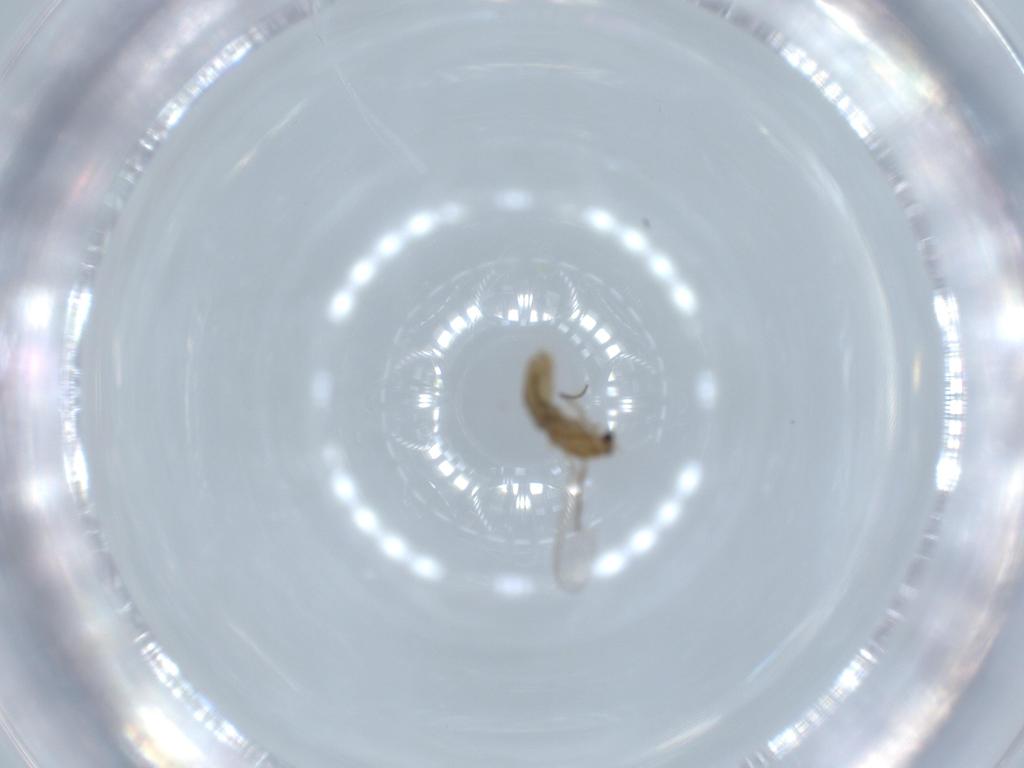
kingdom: Animalia
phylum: Arthropoda
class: Insecta
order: Diptera
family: Chironomidae
